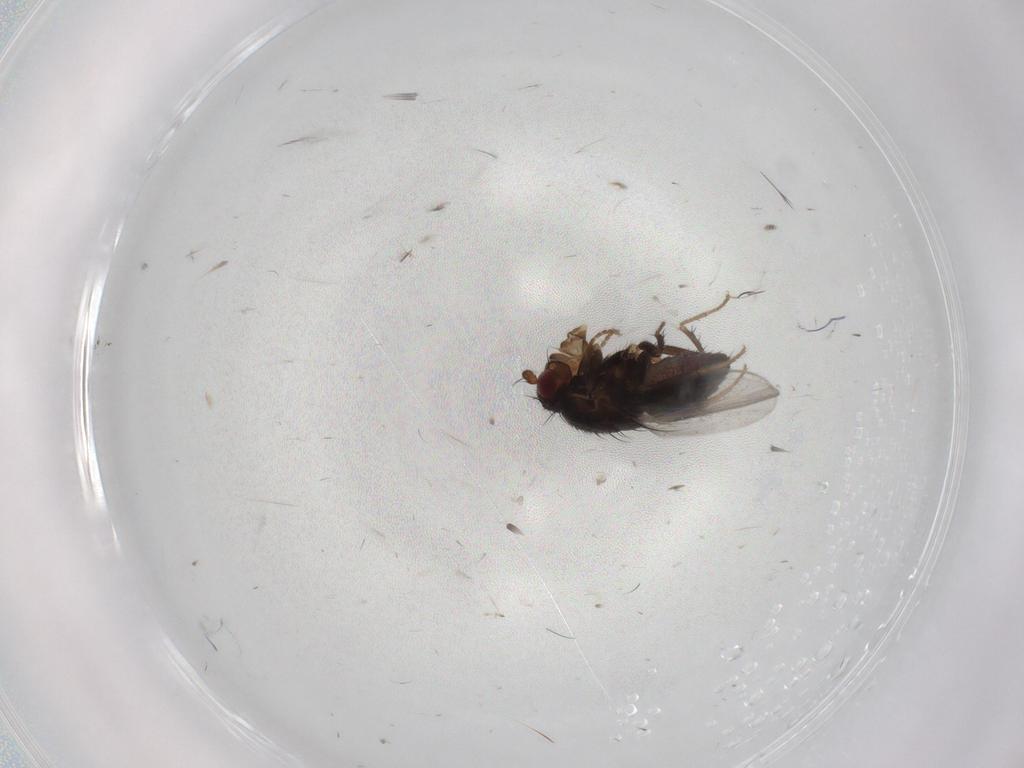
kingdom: Animalia
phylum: Arthropoda
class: Insecta
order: Diptera
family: Sphaeroceridae
